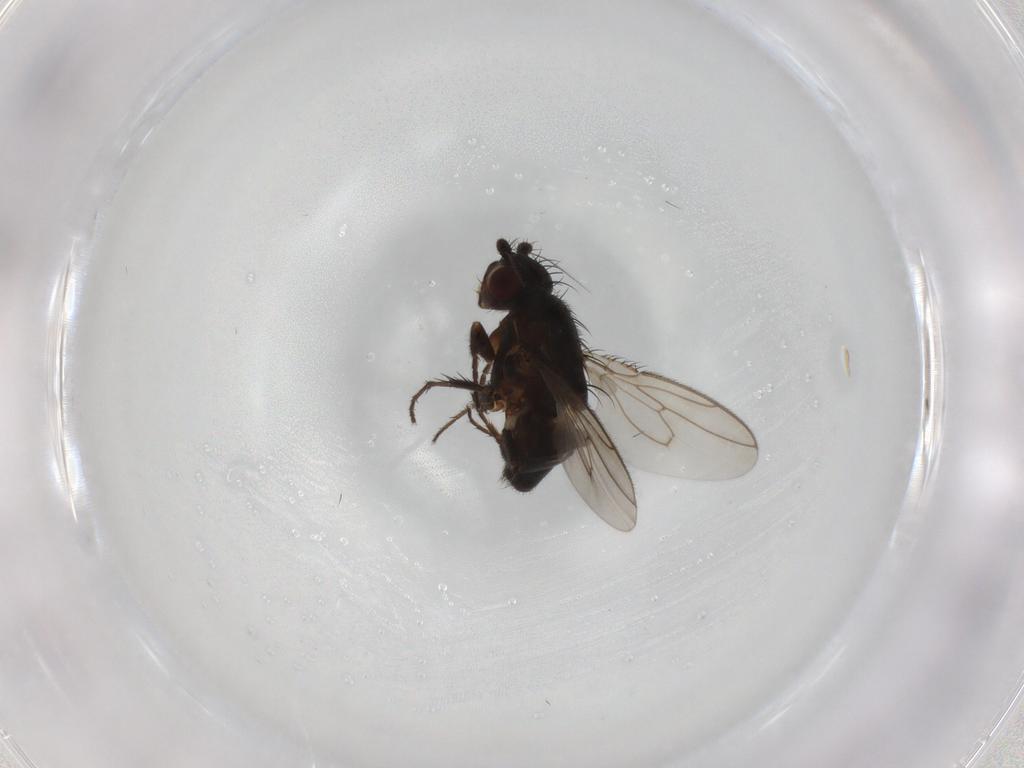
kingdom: Animalia
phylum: Arthropoda
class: Insecta
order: Diptera
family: Sphaeroceridae
